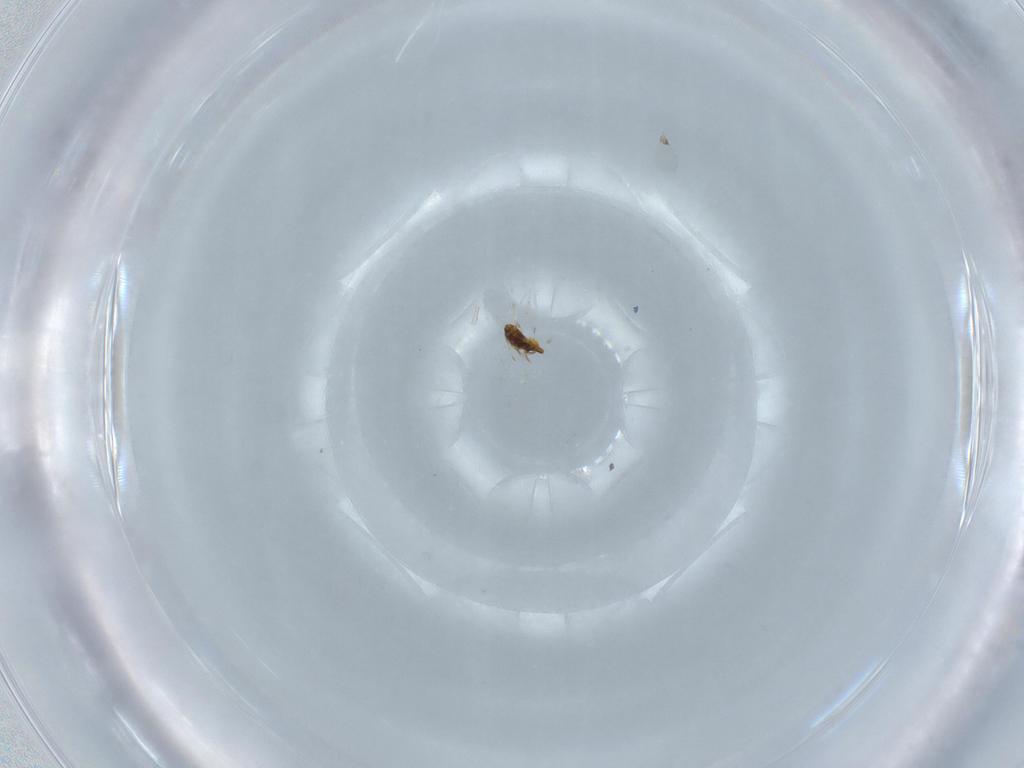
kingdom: Animalia
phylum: Arthropoda
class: Insecta
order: Hymenoptera
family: Trichogrammatidae
